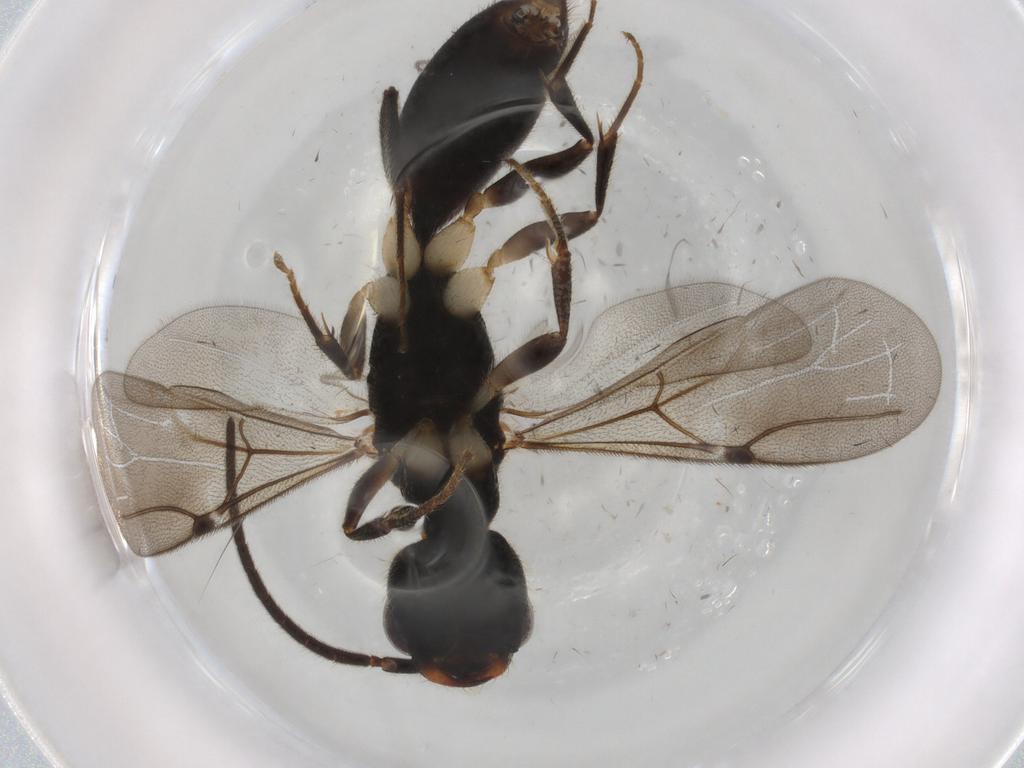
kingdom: Animalia
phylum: Arthropoda
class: Insecta
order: Hymenoptera
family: Bethylidae
